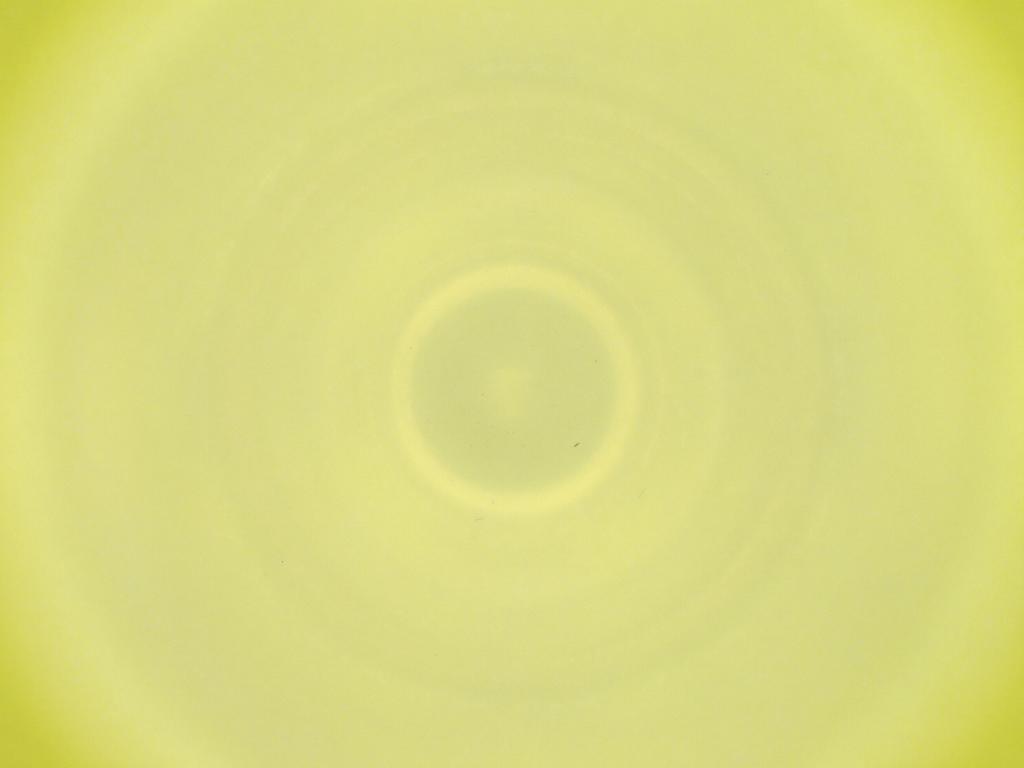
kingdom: Animalia
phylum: Arthropoda
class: Insecta
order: Diptera
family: Cecidomyiidae
